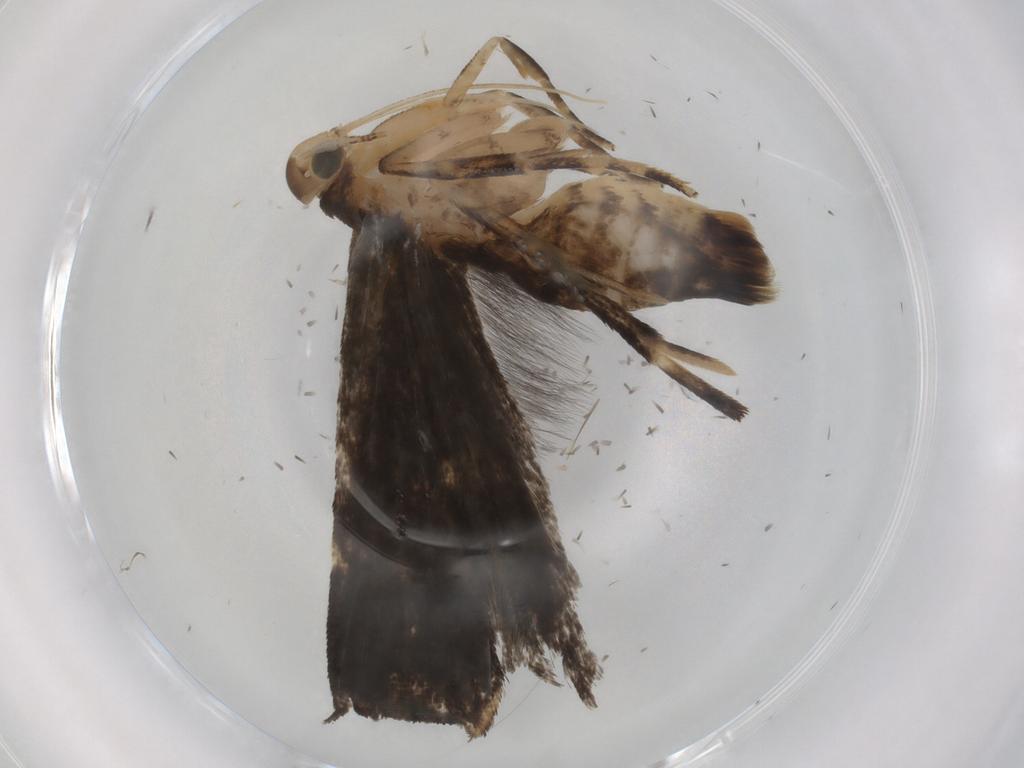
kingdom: Animalia
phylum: Arthropoda
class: Insecta
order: Lepidoptera
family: Cosmopterigidae
